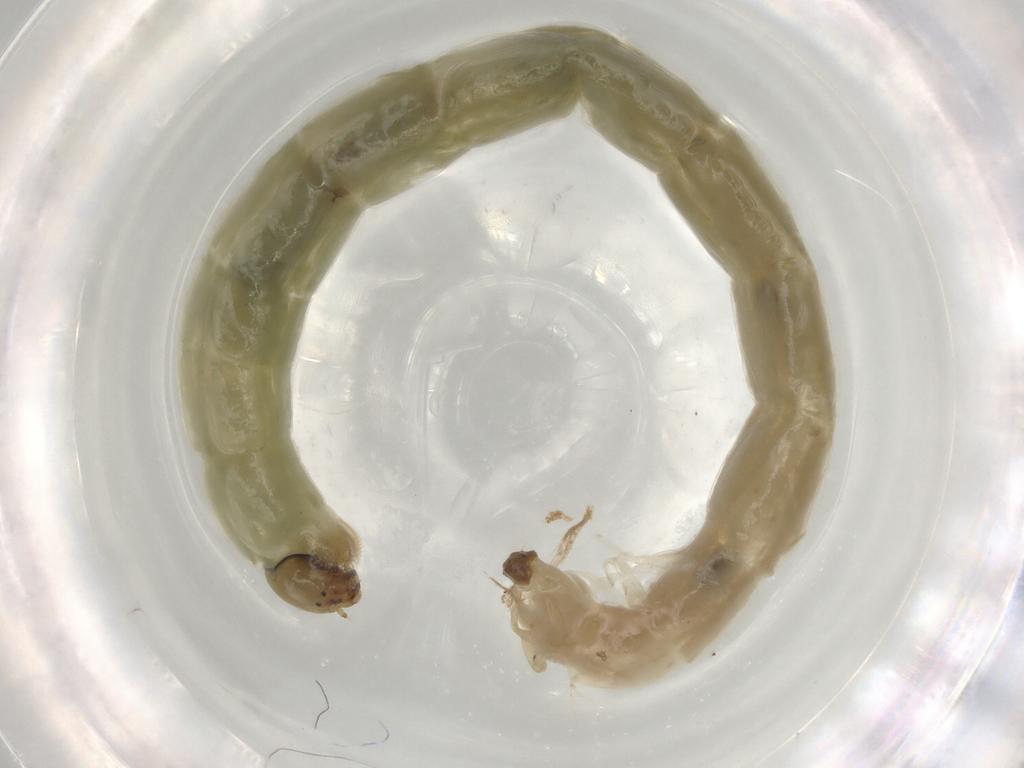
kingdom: Animalia
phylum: Arthropoda
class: Insecta
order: Diptera
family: Chironomidae
